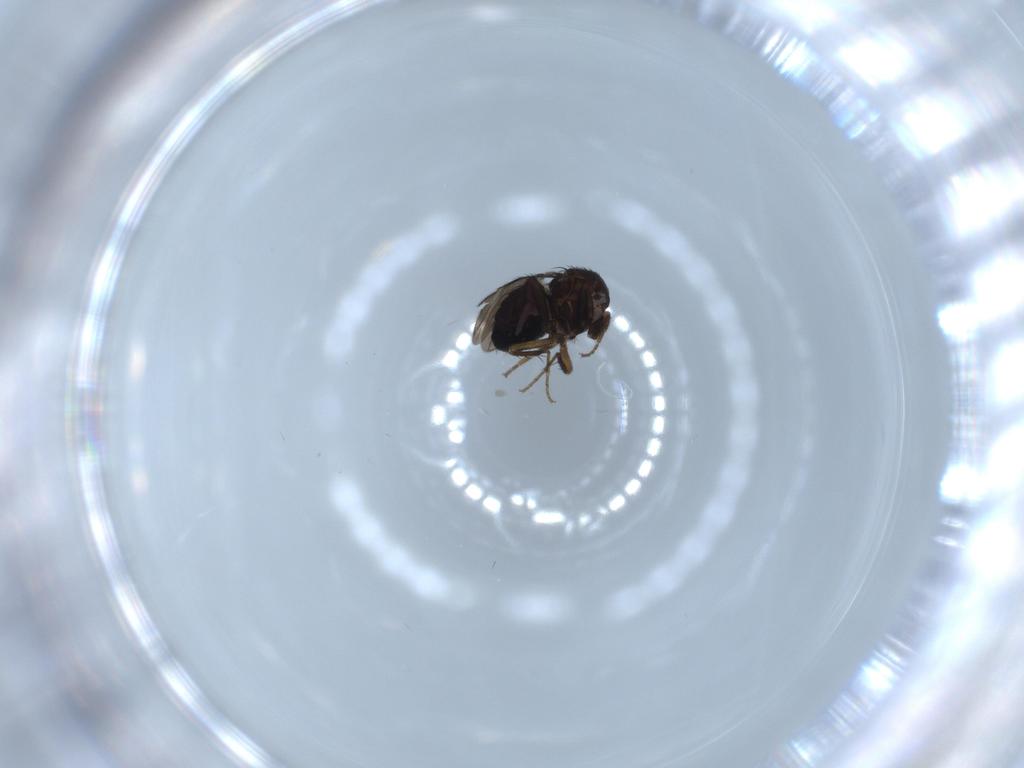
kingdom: Animalia
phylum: Arthropoda
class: Insecta
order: Diptera
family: Sphaeroceridae
